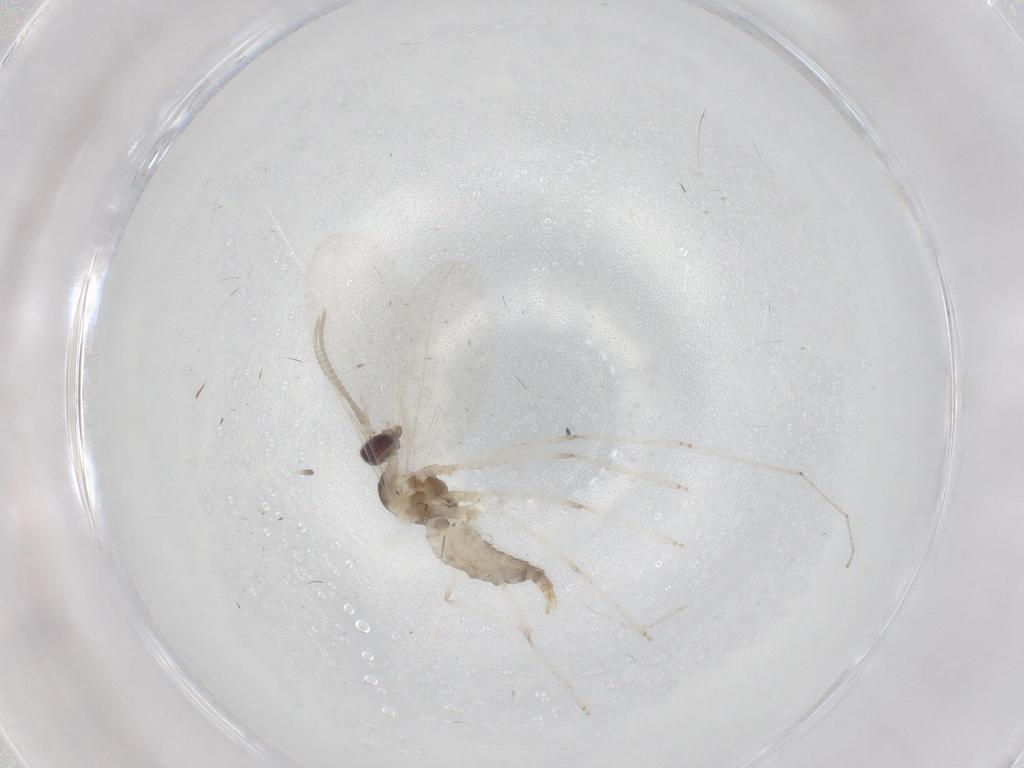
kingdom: Animalia
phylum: Arthropoda
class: Insecta
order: Diptera
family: Cecidomyiidae
